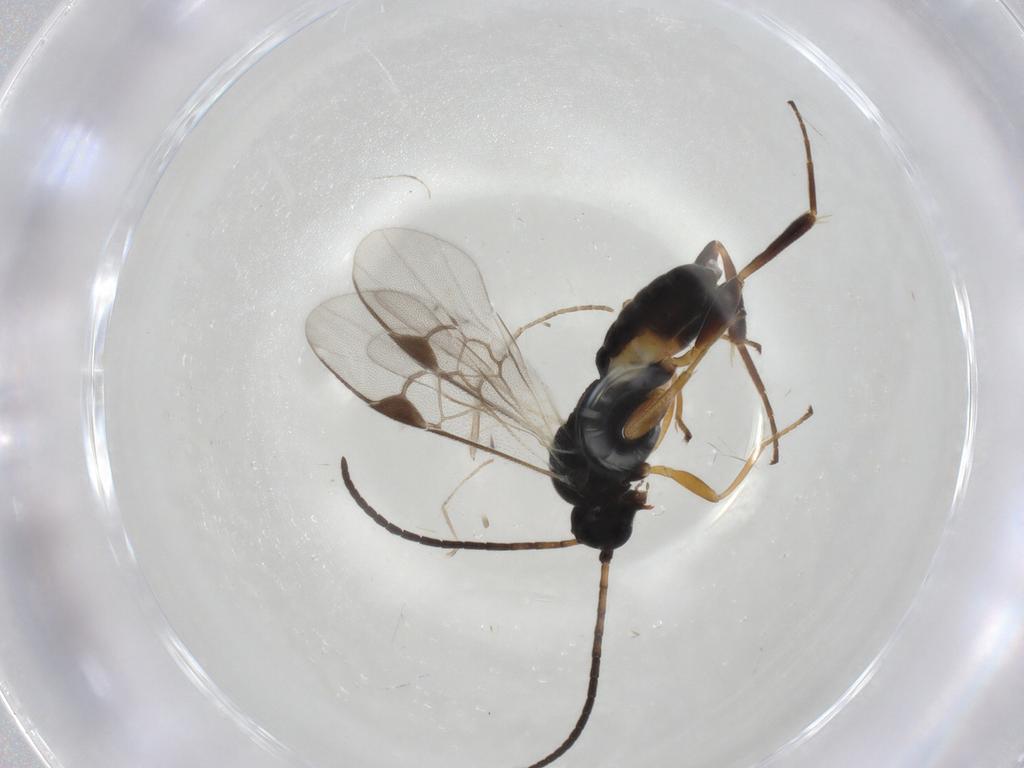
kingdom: Animalia
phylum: Arthropoda
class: Insecta
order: Hymenoptera
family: Braconidae
